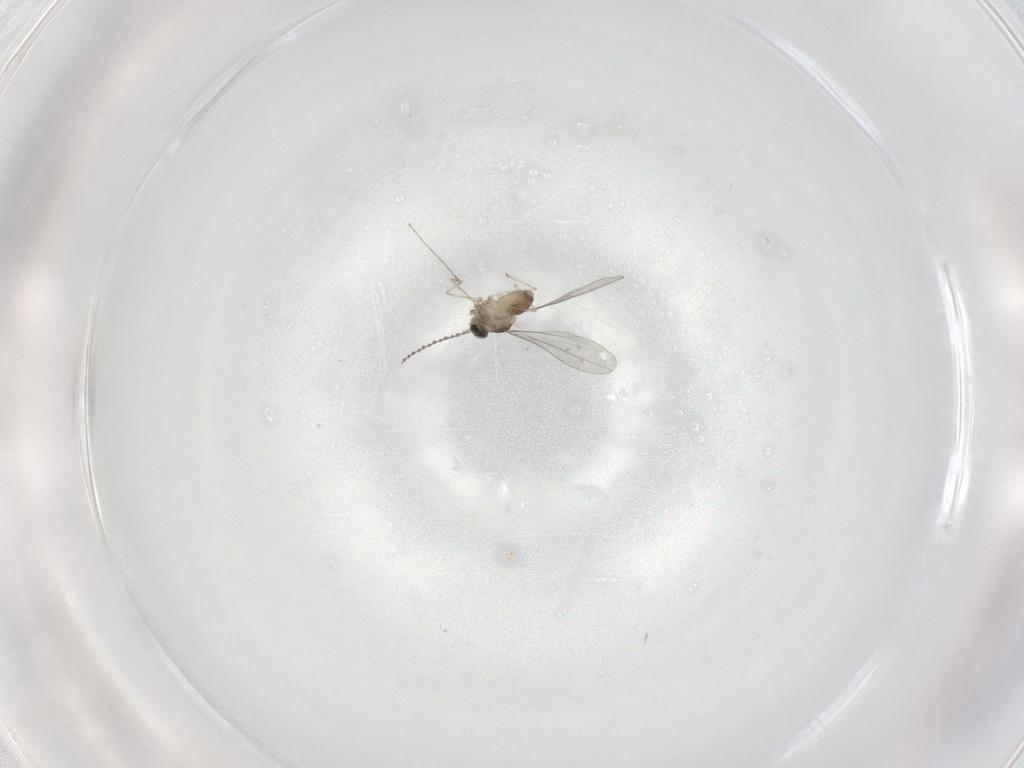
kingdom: Animalia
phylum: Arthropoda
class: Insecta
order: Diptera
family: Cecidomyiidae
